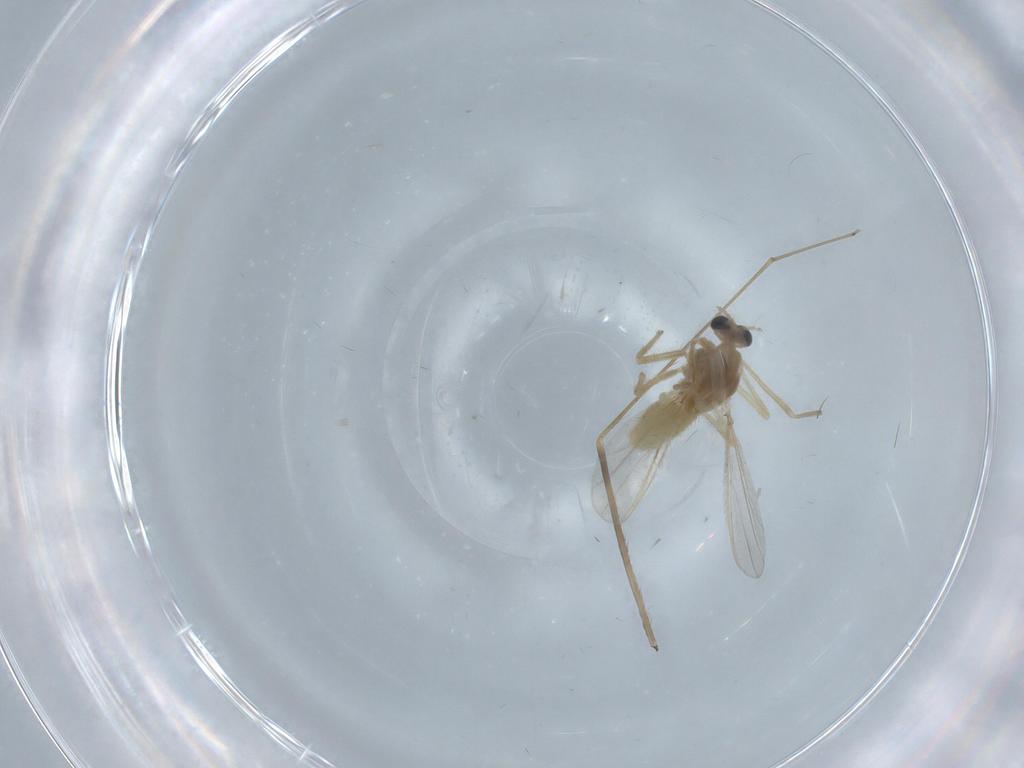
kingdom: Animalia
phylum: Arthropoda
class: Insecta
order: Diptera
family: Limoniidae
